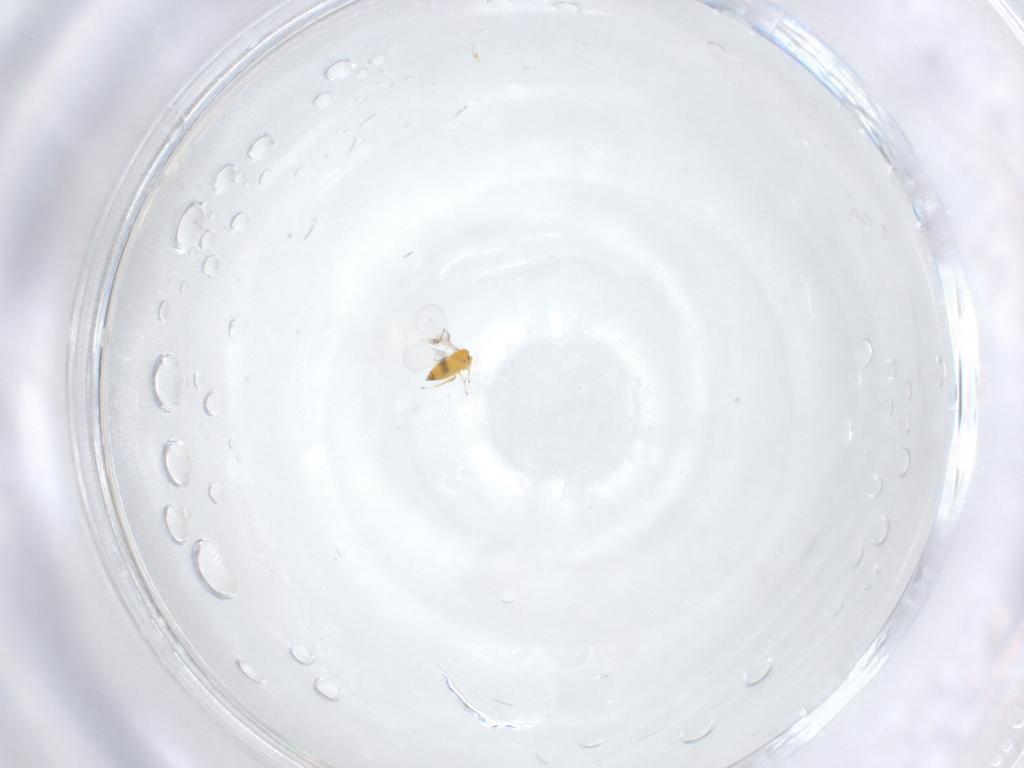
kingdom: Animalia
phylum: Arthropoda
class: Insecta
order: Hymenoptera
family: Trichogrammatidae
